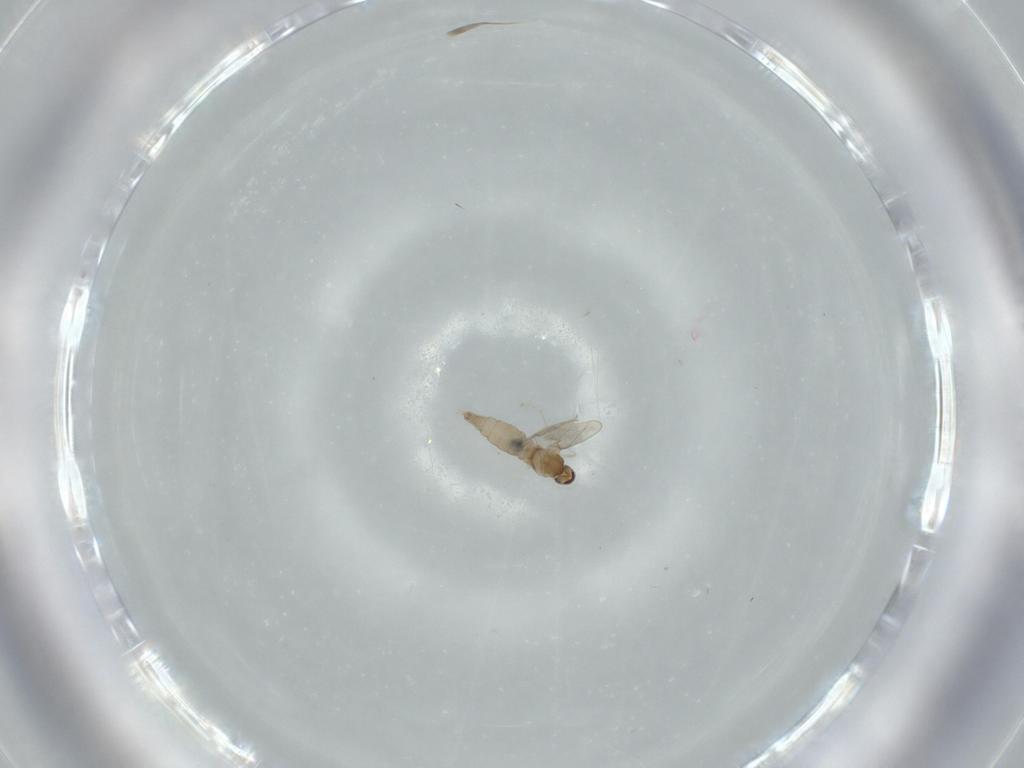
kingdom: Animalia
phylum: Arthropoda
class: Insecta
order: Diptera
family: Cecidomyiidae
